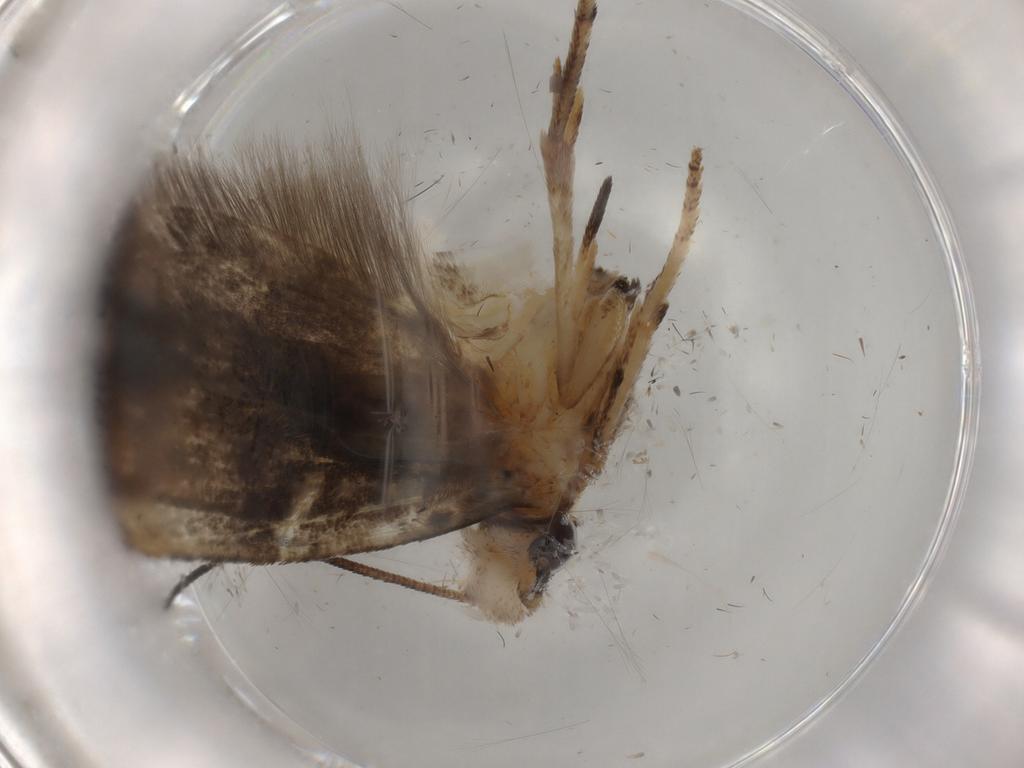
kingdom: Animalia
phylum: Arthropoda
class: Insecta
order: Lepidoptera
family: Yponomeutidae
